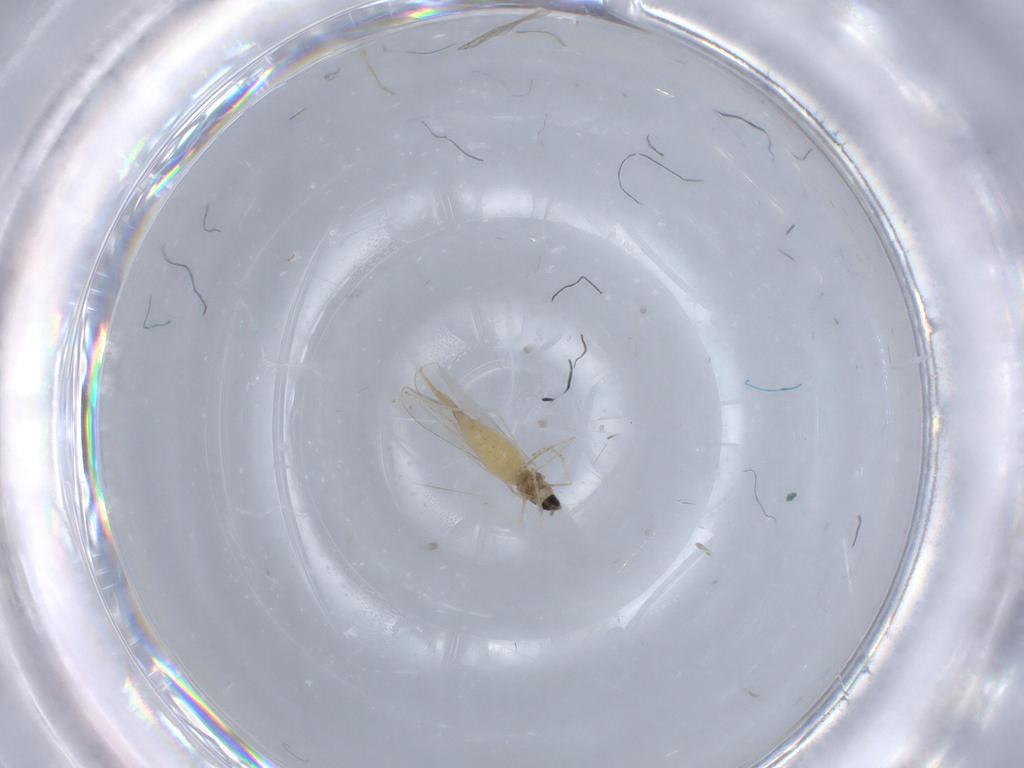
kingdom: Animalia
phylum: Arthropoda
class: Insecta
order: Diptera
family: Cecidomyiidae
